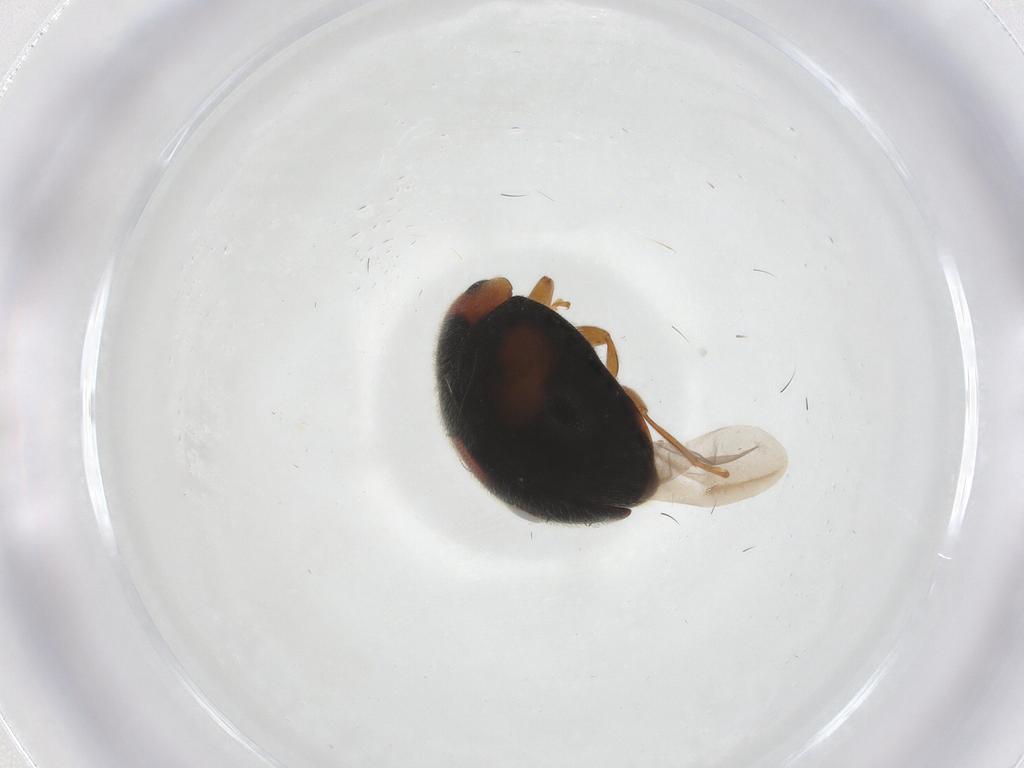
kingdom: Animalia
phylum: Arthropoda
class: Insecta
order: Coleoptera
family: Coccinellidae
